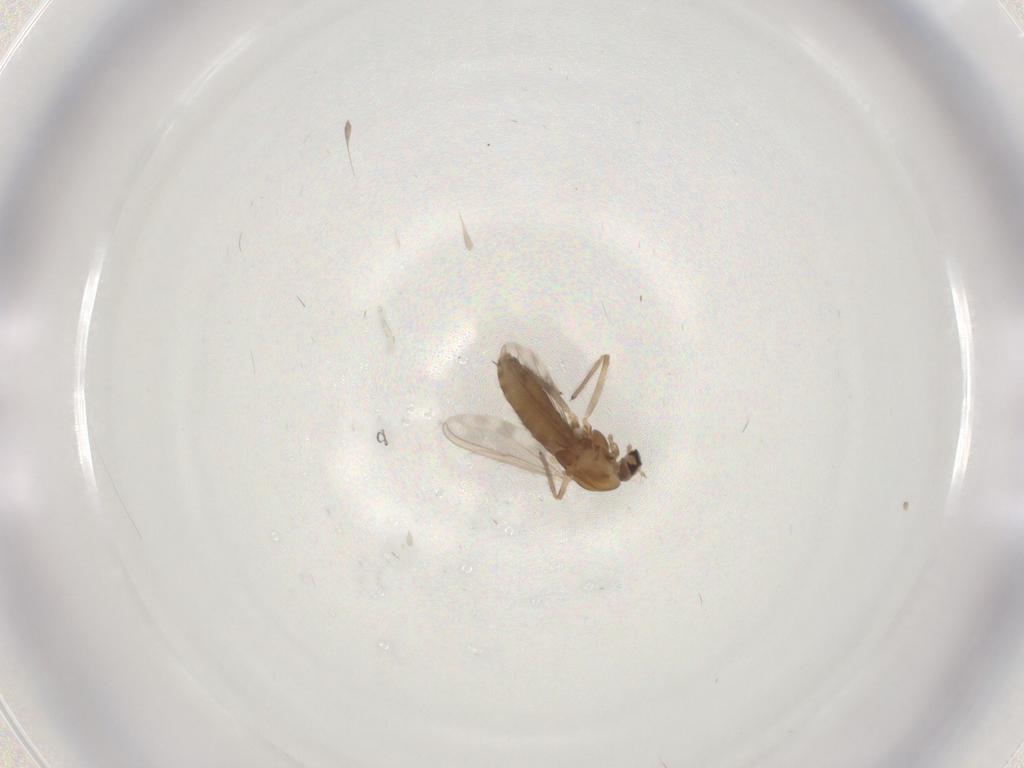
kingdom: Animalia
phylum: Arthropoda
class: Insecta
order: Diptera
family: Chironomidae
